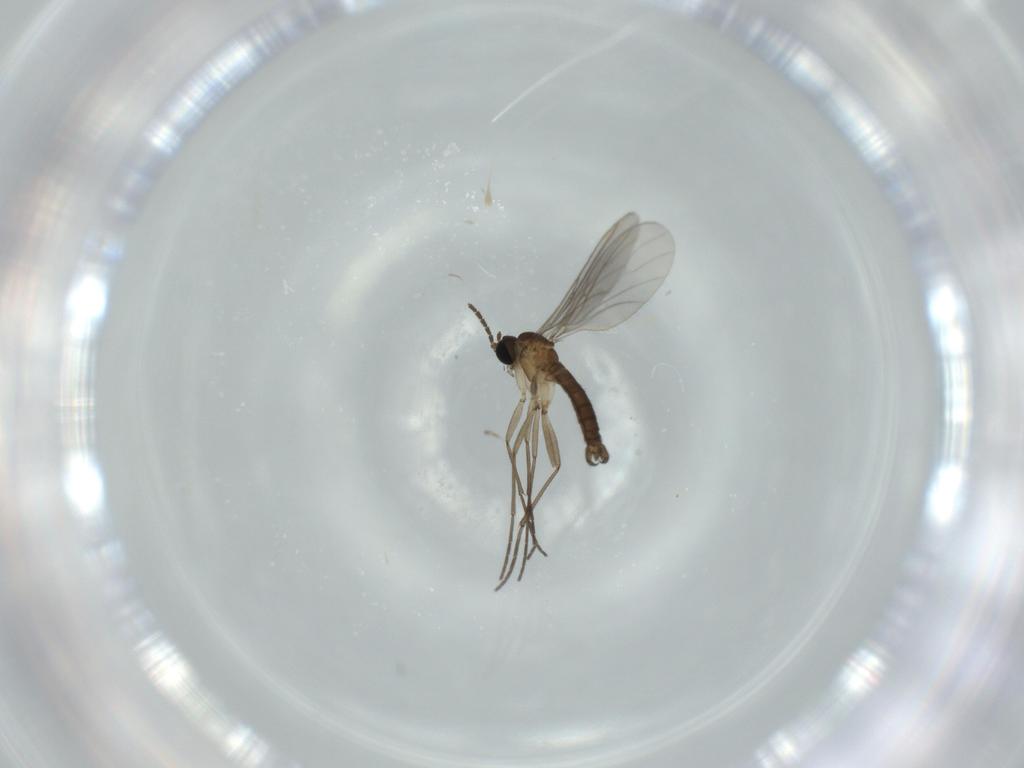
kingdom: Animalia
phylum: Arthropoda
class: Insecta
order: Diptera
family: Sciaridae
